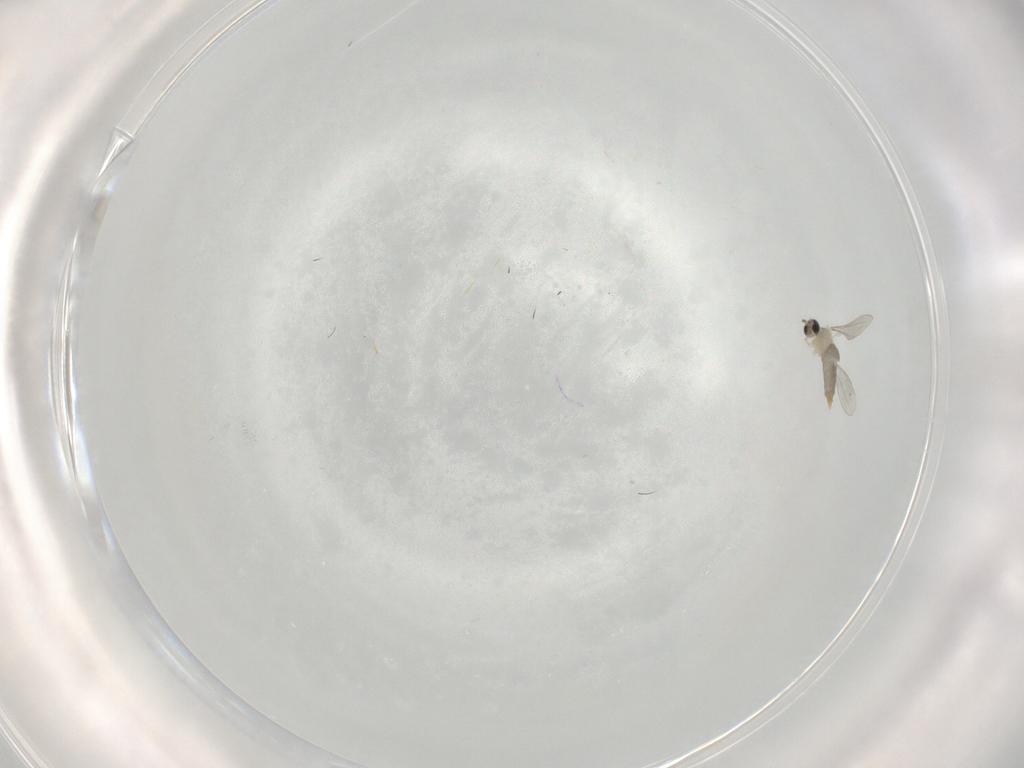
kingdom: Animalia
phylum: Arthropoda
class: Insecta
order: Diptera
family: Cecidomyiidae
